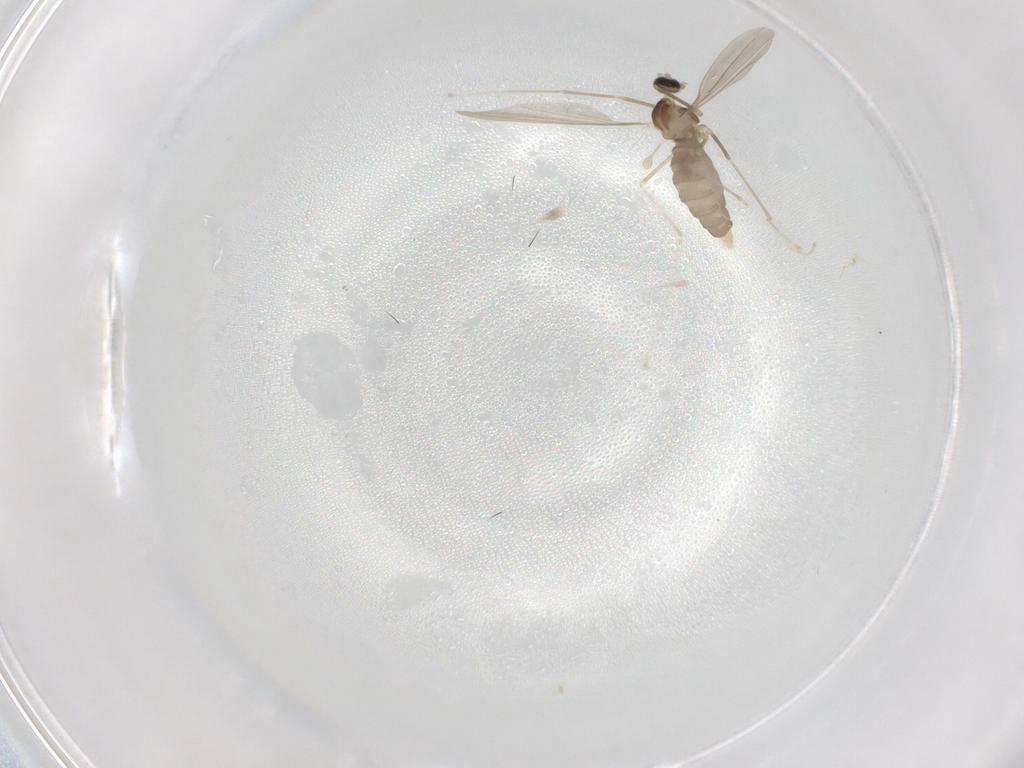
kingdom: Animalia
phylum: Arthropoda
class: Insecta
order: Diptera
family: Cecidomyiidae
